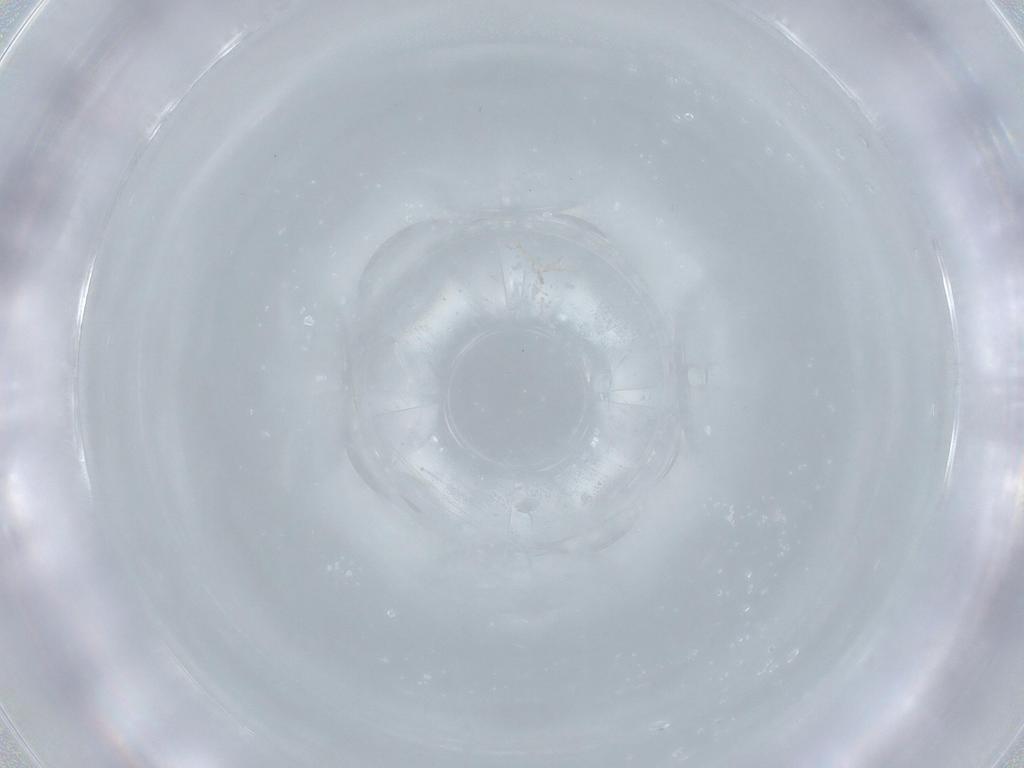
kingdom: Animalia
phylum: Arthropoda
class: Insecta
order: Diptera
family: Cecidomyiidae
